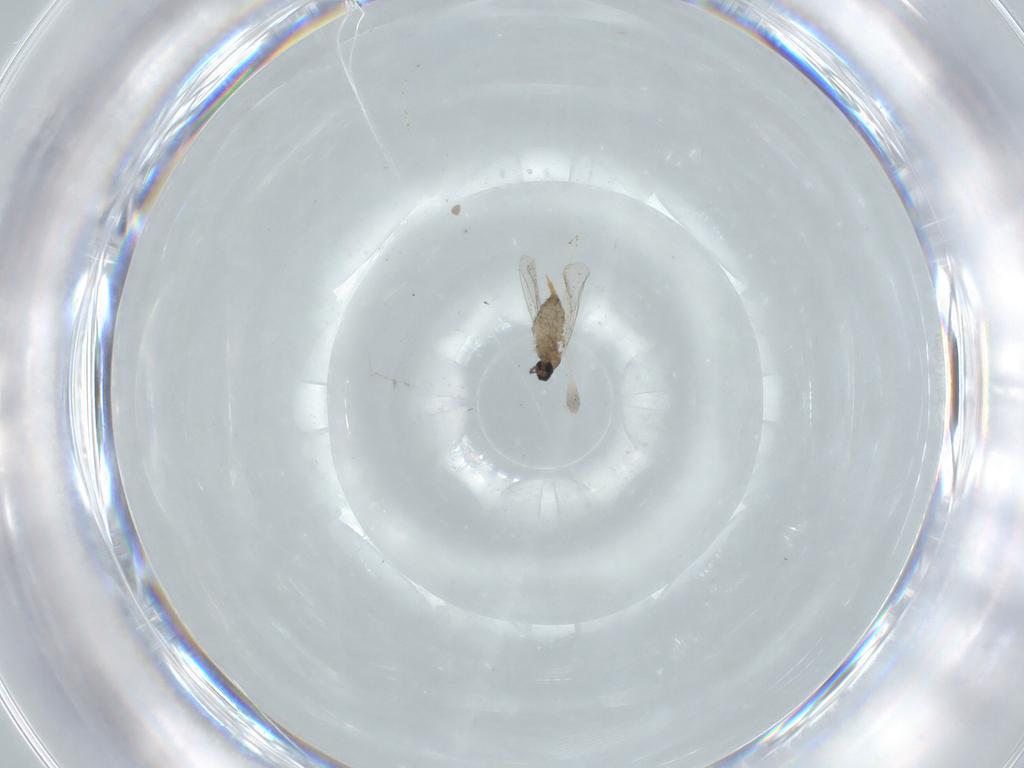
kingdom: Animalia
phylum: Arthropoda
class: Insecta
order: Diptera
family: Cecidomyiidae
